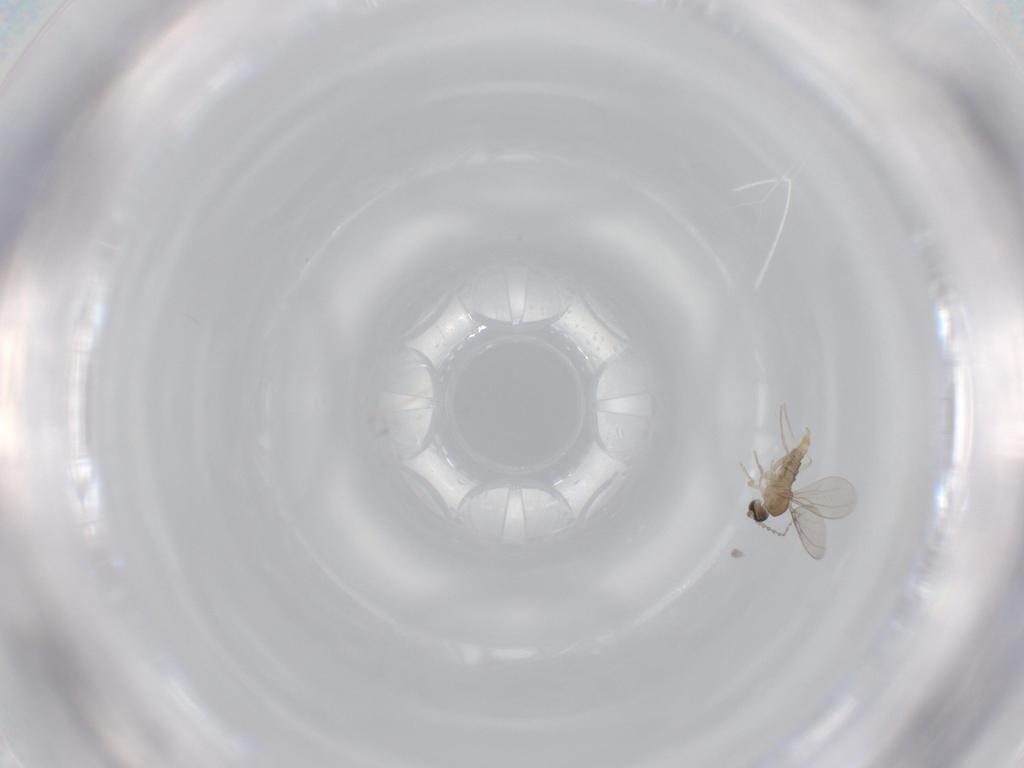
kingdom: Animalia
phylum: Arthropoda
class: Insecta
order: Diptera
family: Cecidomyiidae
